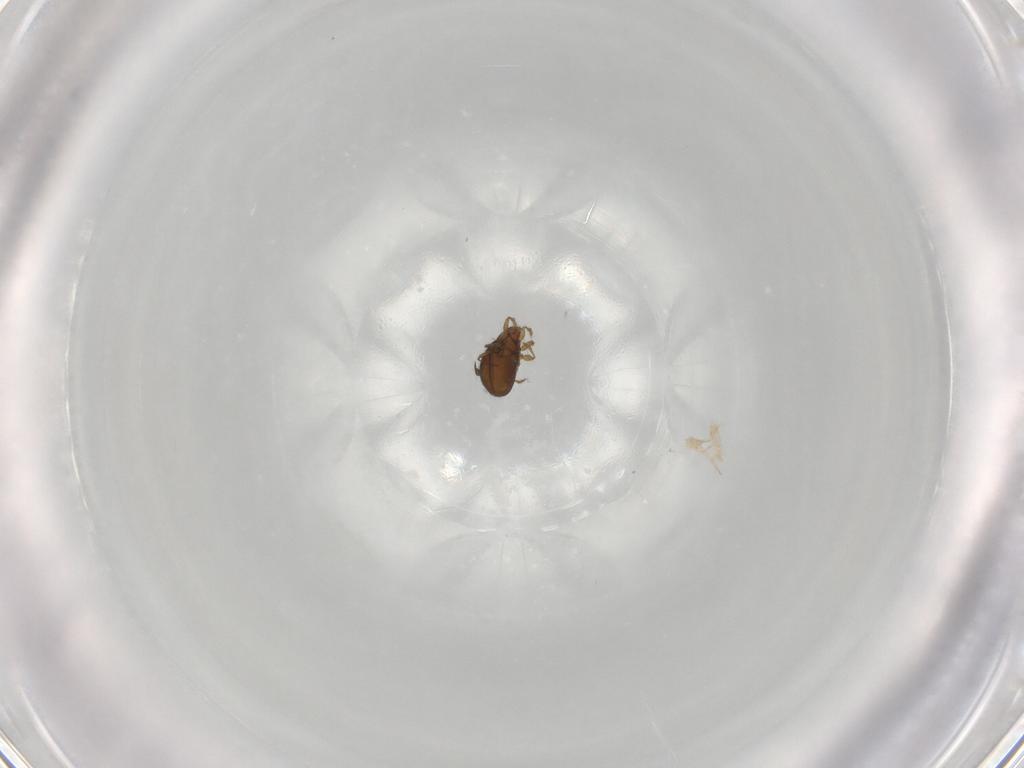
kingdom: Animalia
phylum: Arthropoda
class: Arachnida
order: Sarcoptiformes
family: Oribatulidae
